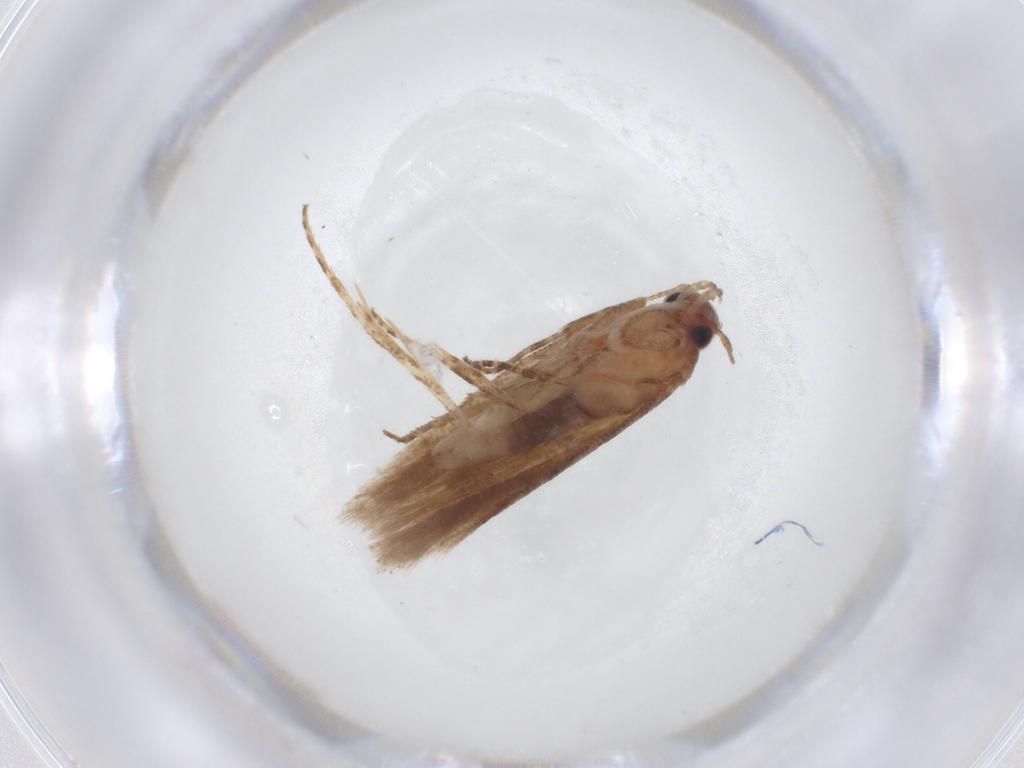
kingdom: Animalia
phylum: Arthropoda
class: Insecta
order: Lepidoptera
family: Gelechiidae
